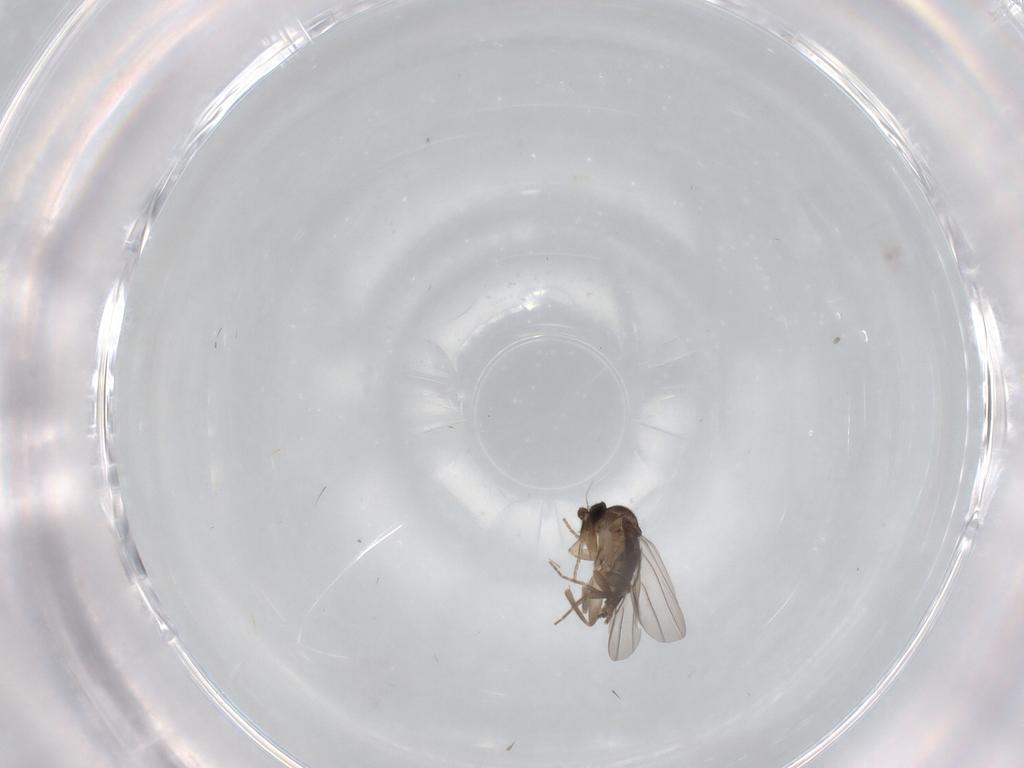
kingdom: Animalia
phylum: Arthropoda
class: Insecta
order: Diptera
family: Phoridae
